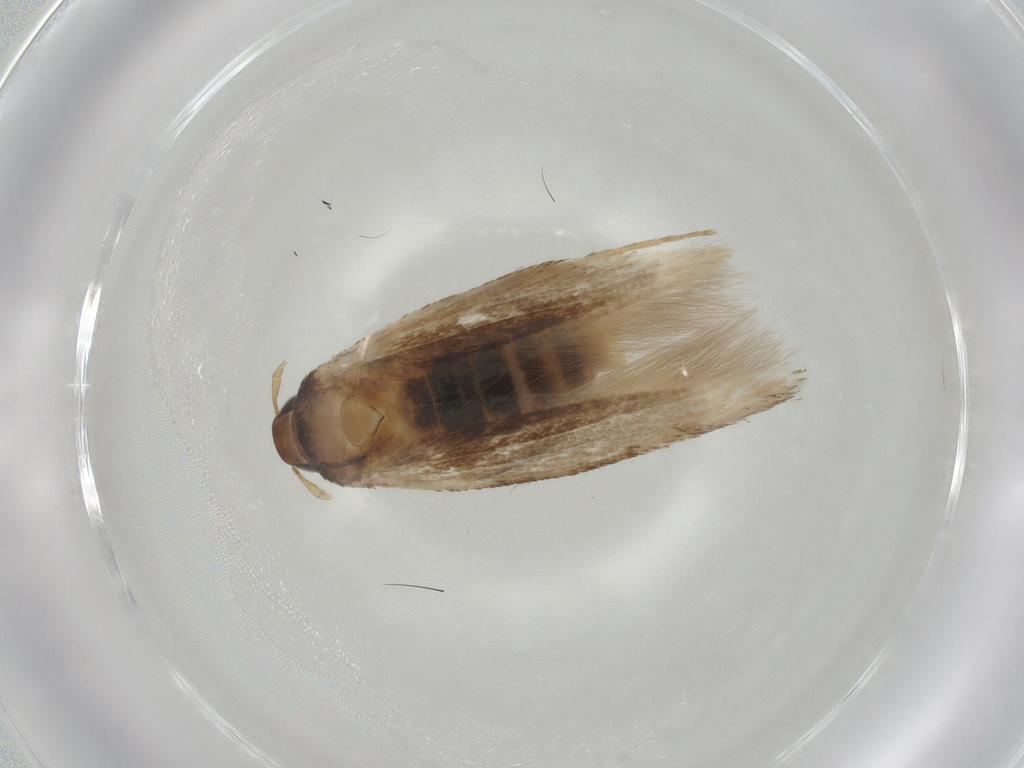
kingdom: Animalia
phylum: Arthropoda
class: Insecta
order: Lepidoptera
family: Cosmopterigidae
